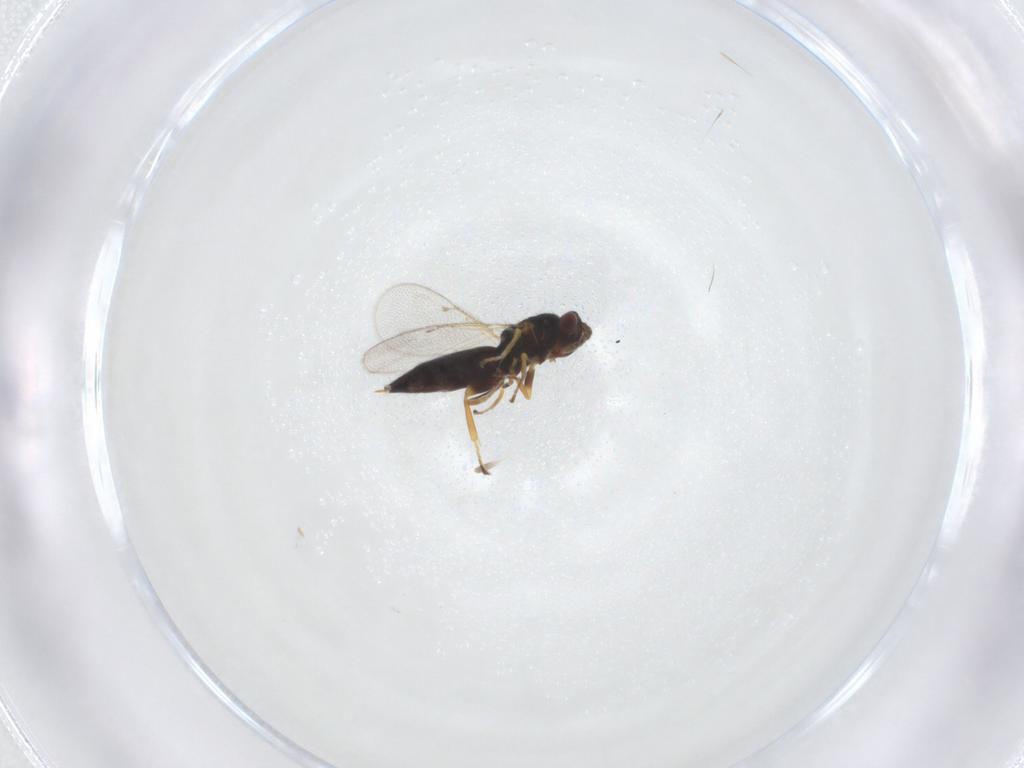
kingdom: Animalia
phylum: Arthropoda
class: Insecta
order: Hymenoptera
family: Eulophidae
